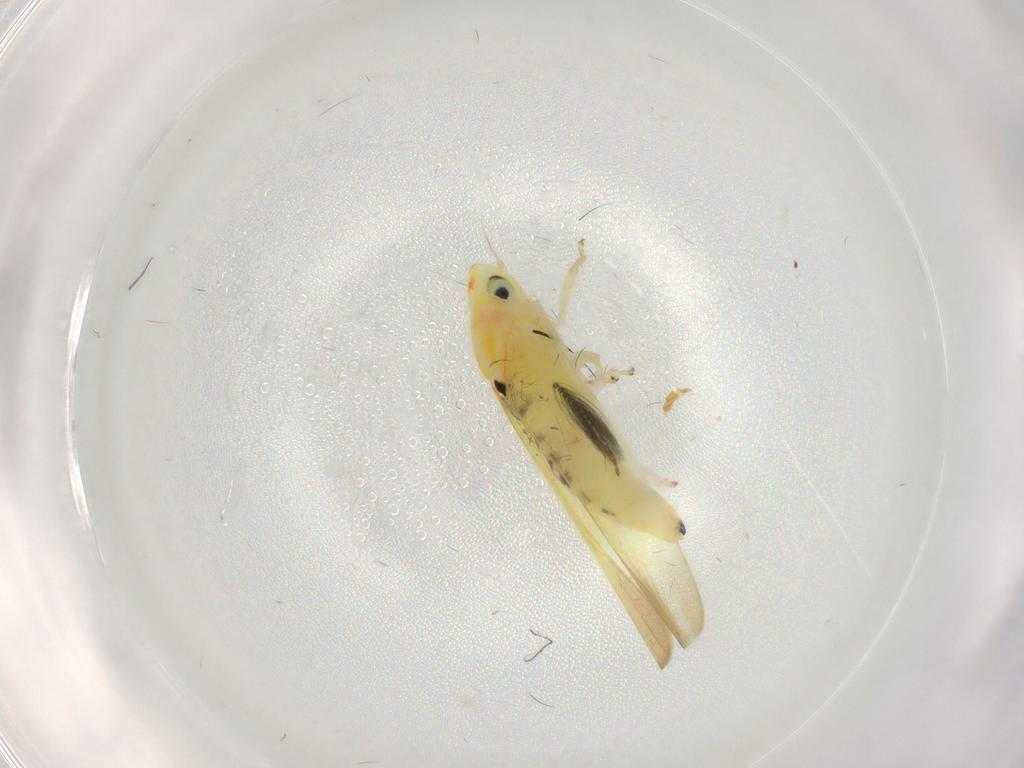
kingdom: Animalia
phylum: Arthropoda
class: Insecta
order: Hemiptera
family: Cicadellidae
